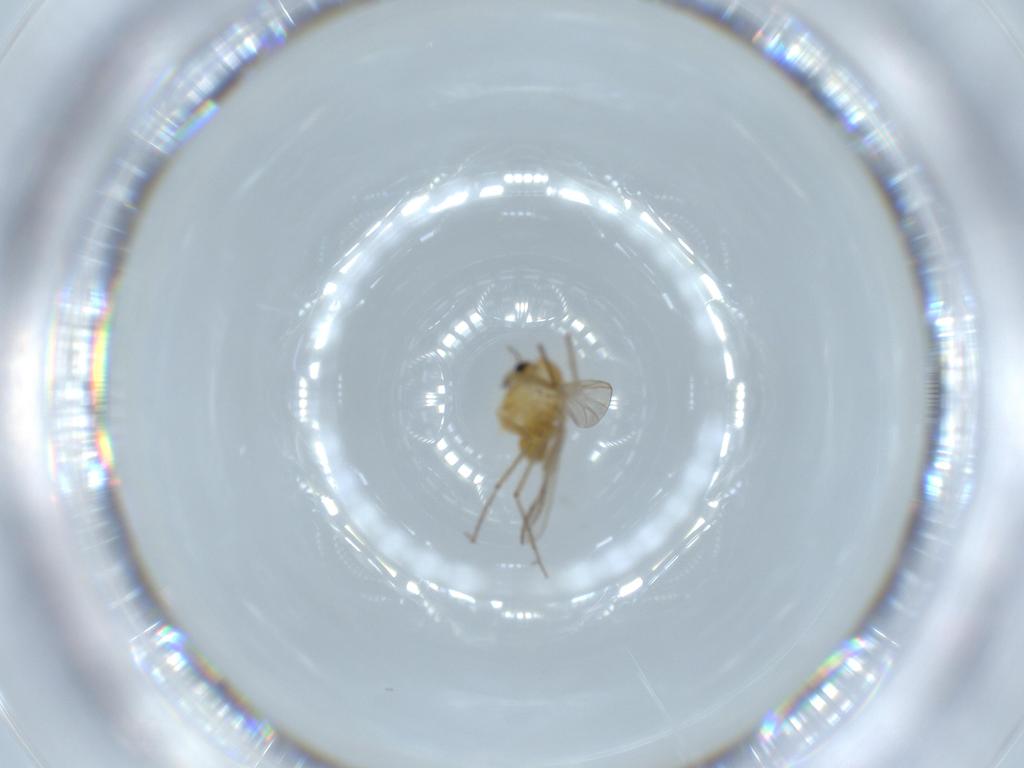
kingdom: Animalia
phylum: Arthropoda
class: Insecta
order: Diptera
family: Chironomidae
